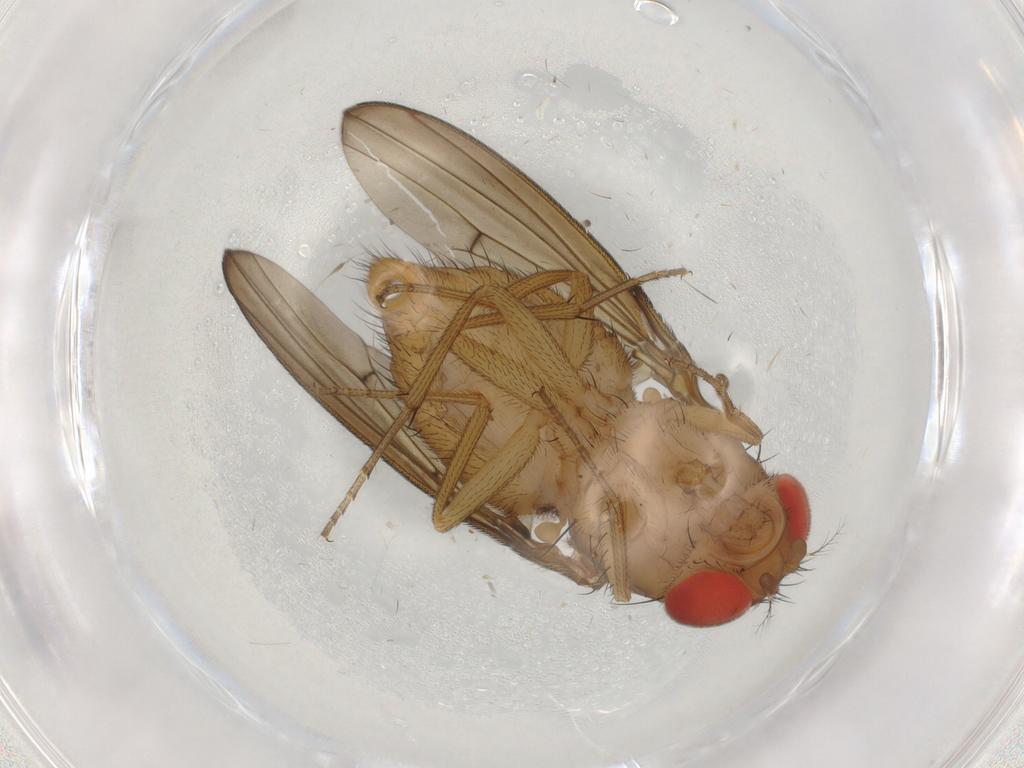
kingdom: Animalia
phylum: Arthropoda
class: Insecta
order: Diptera
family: Drosophilidae
